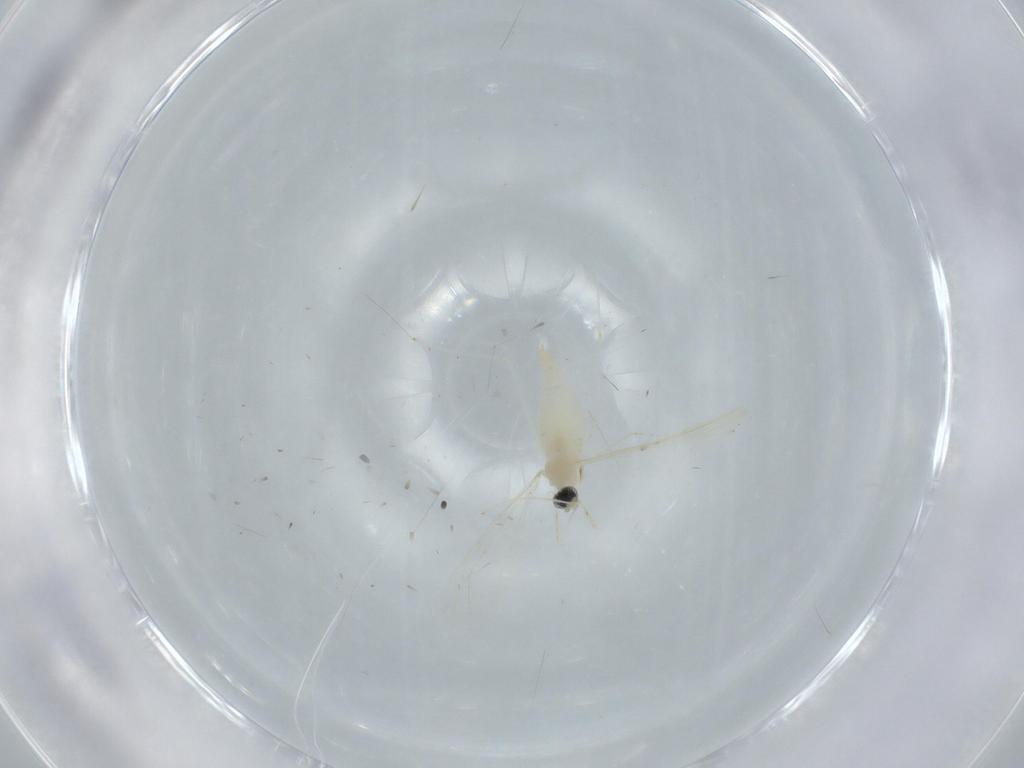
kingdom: Animalia
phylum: Arthropoda
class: Insecta
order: Diptera
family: Cecidomyiidae
